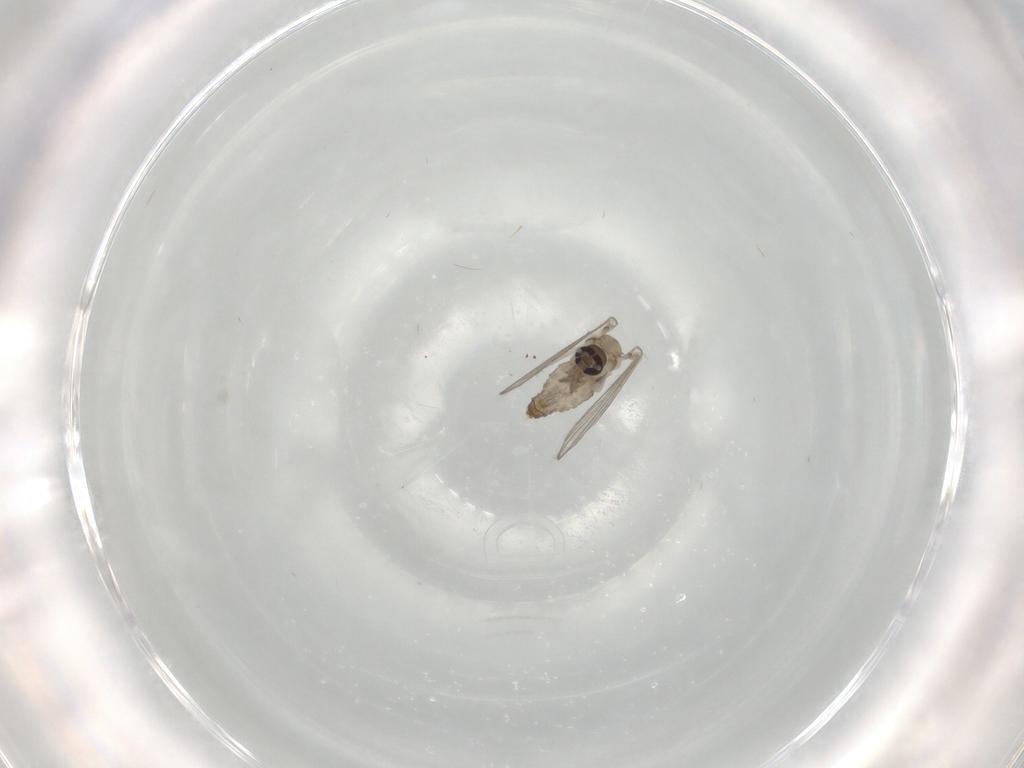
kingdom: Animalia
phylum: Arthropoda
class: Insecta
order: Diptera
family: Psychodidae
